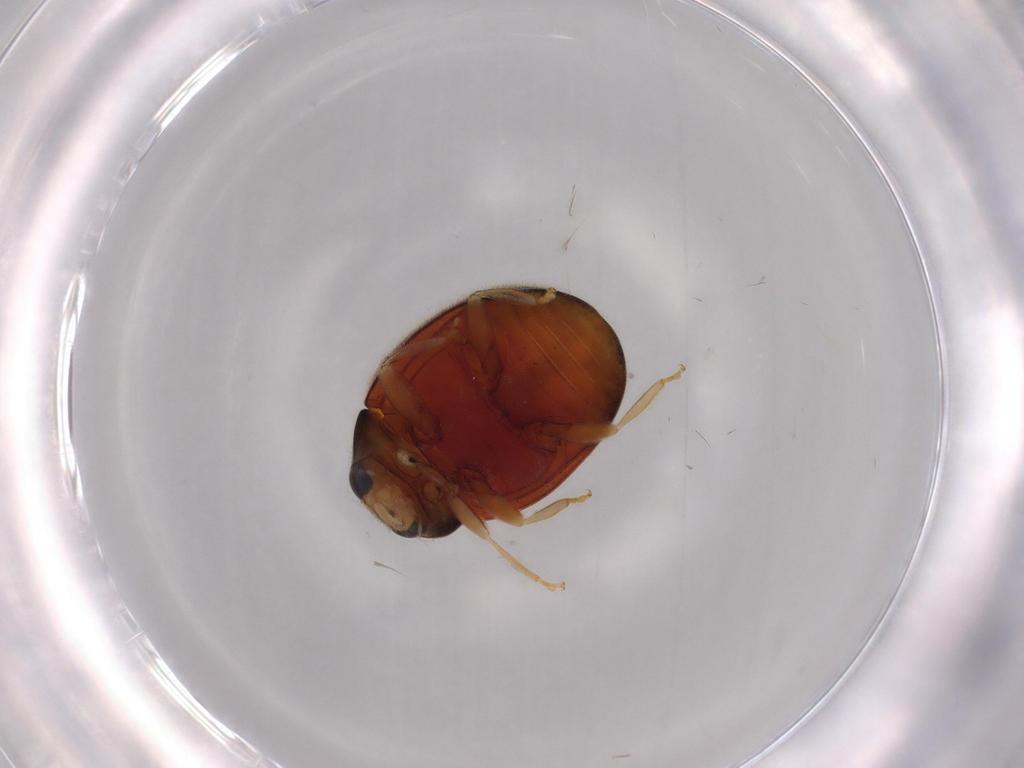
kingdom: Animalia
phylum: Arthropoda
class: Insecta
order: Coleoptera
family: Coccinellidae
